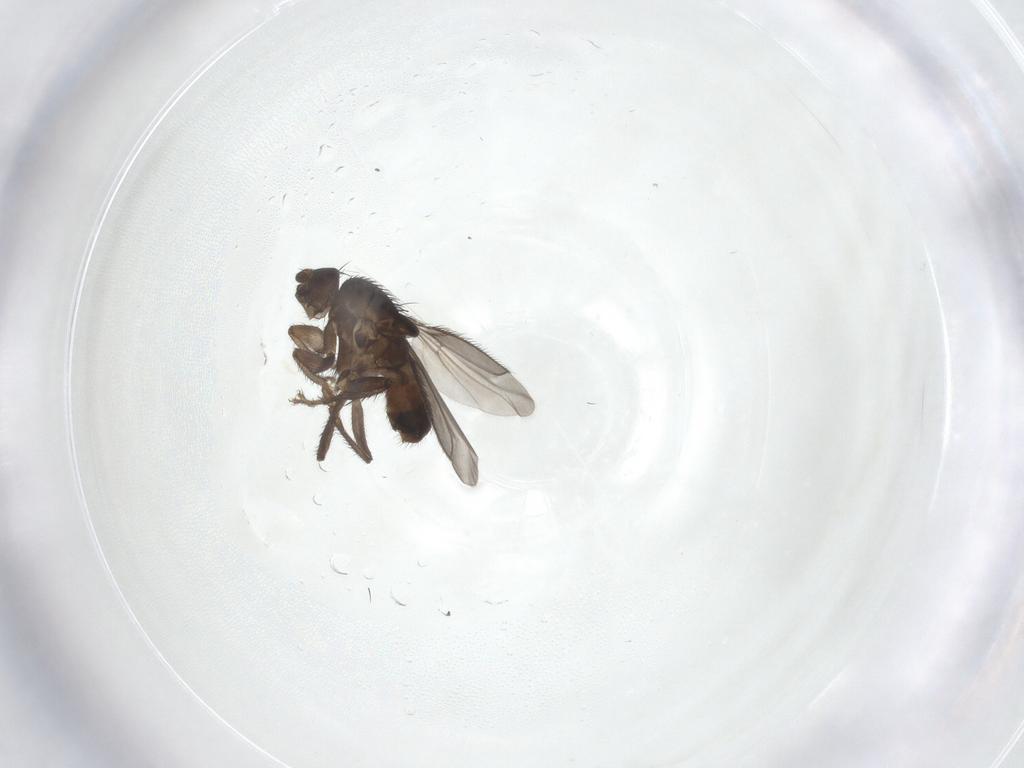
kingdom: Animalia
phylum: Arthropoda
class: Insecta
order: Diptera
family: Sphaeroceridae
